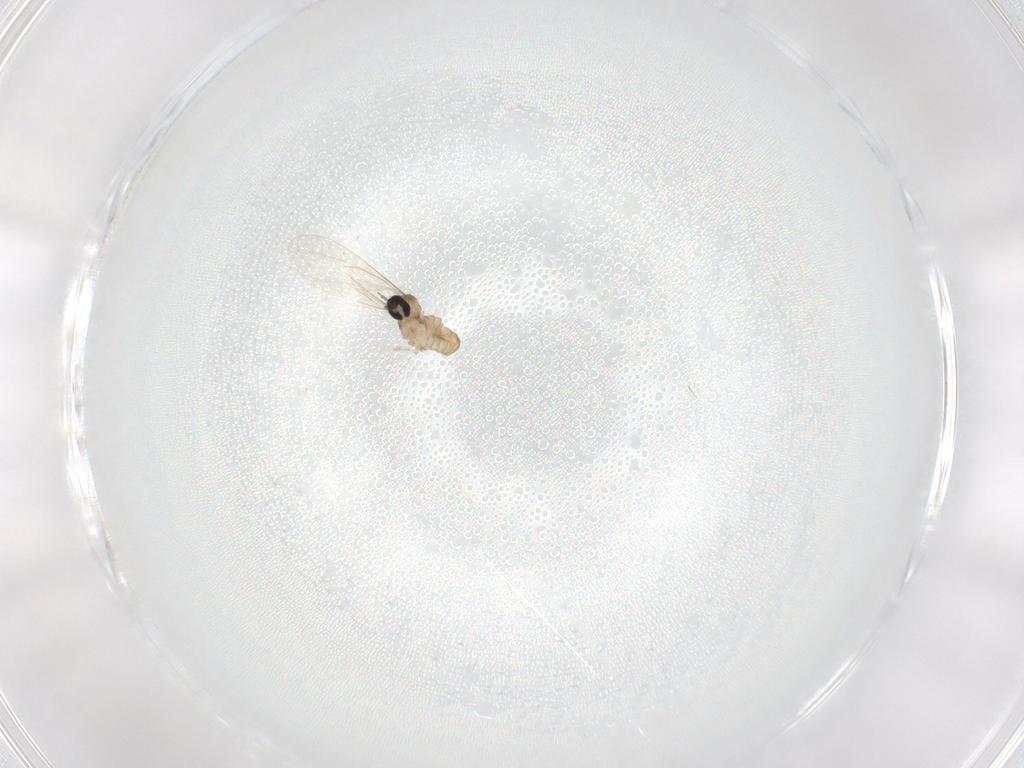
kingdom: Animalia
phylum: Arthropoda
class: Insecta
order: Diptera
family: Cecidomyiidae
